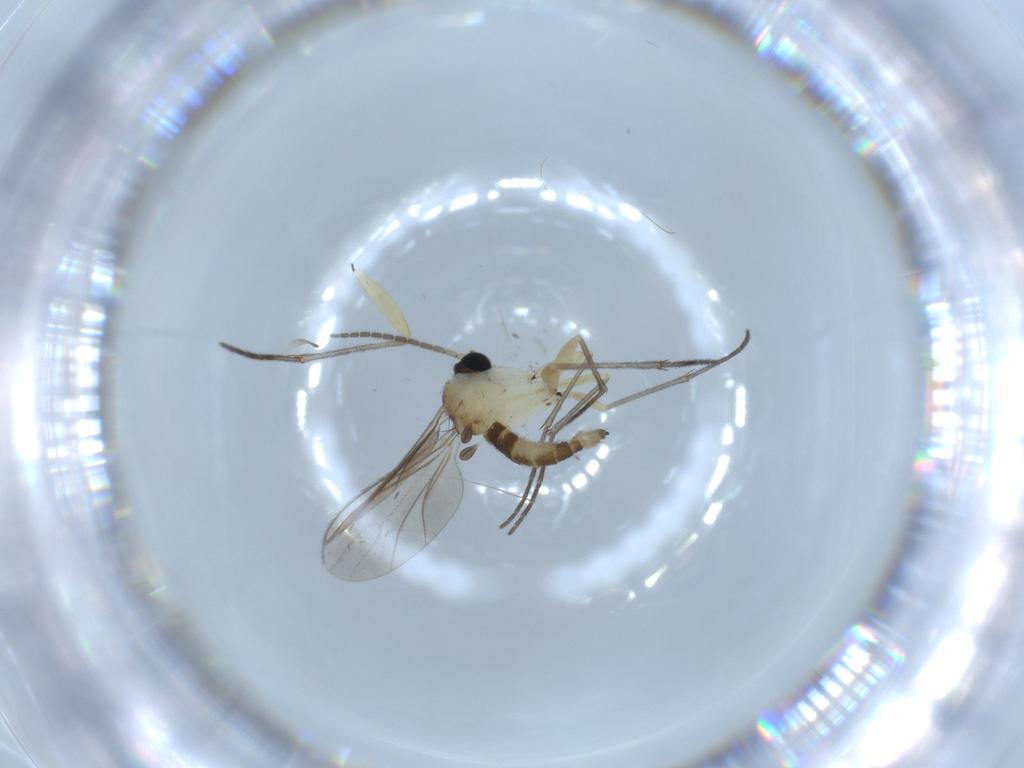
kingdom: Animalia
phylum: Arthropoda
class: Insecta
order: Diptera
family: Sciaridae
